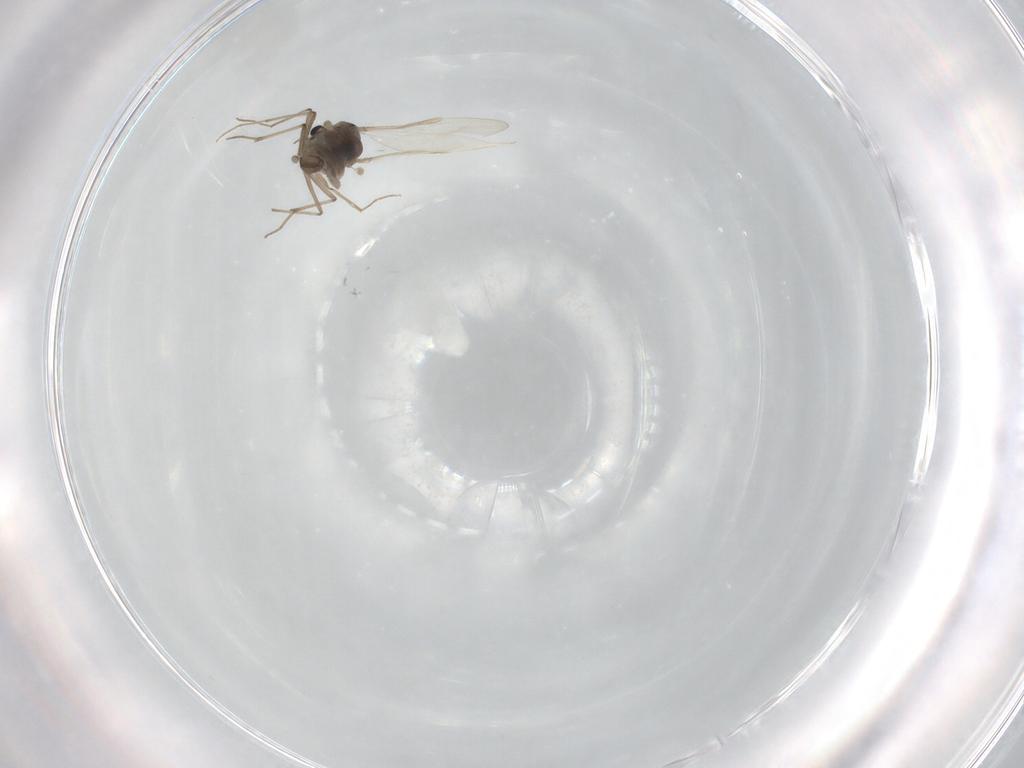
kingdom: Animalia
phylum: Arthropoda
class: Insecta
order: Diptera
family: Chironomidae
